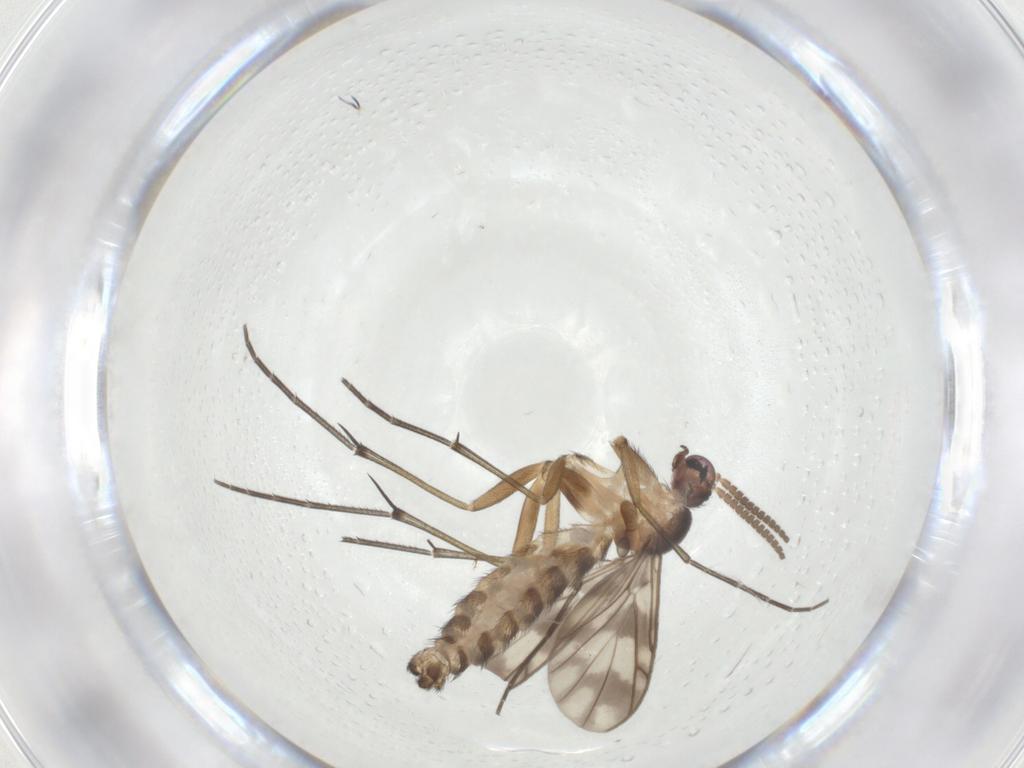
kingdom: Animalia
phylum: Arthropoda
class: Insecta
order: Diptera
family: Keroplatidae
